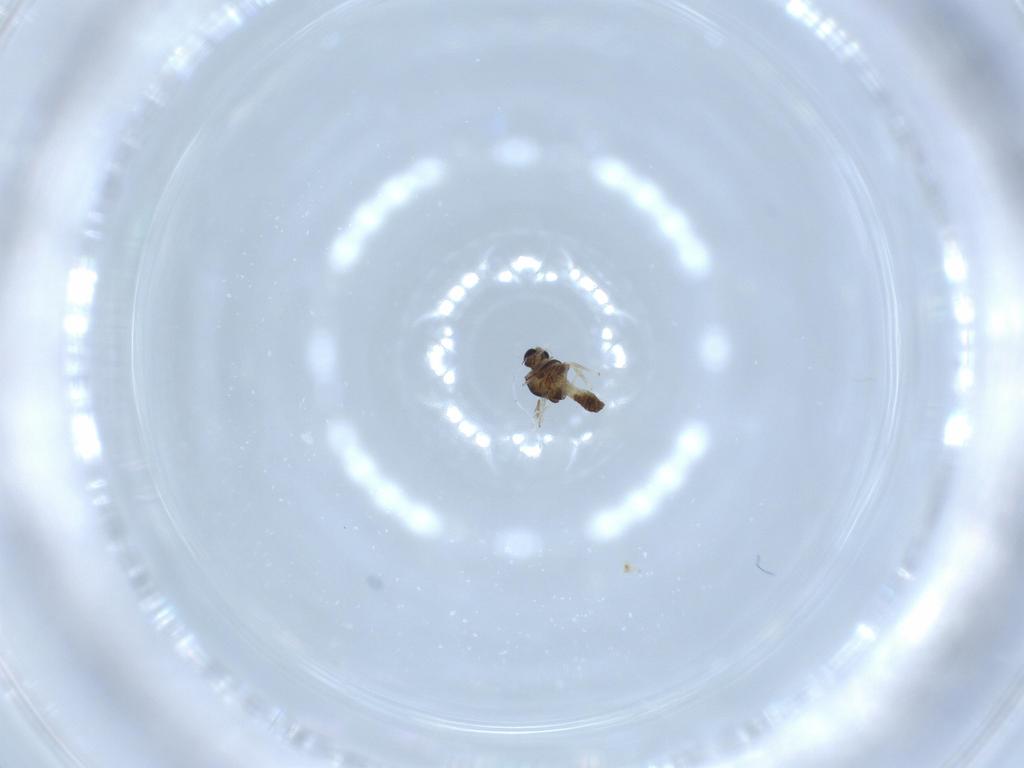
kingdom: Animalia
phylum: Arthropoda
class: Insecta
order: Diptera
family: Chironomidae
